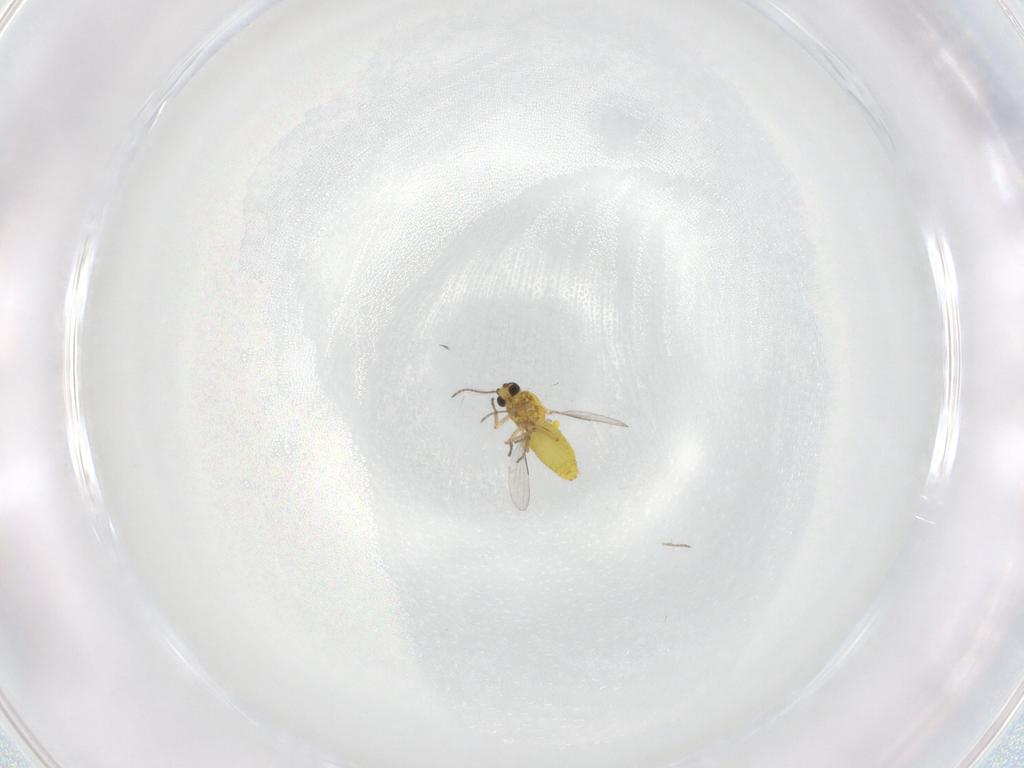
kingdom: Animalia
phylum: Arthropoda
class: Insecta
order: Diptera
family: Ceratopogonidae
